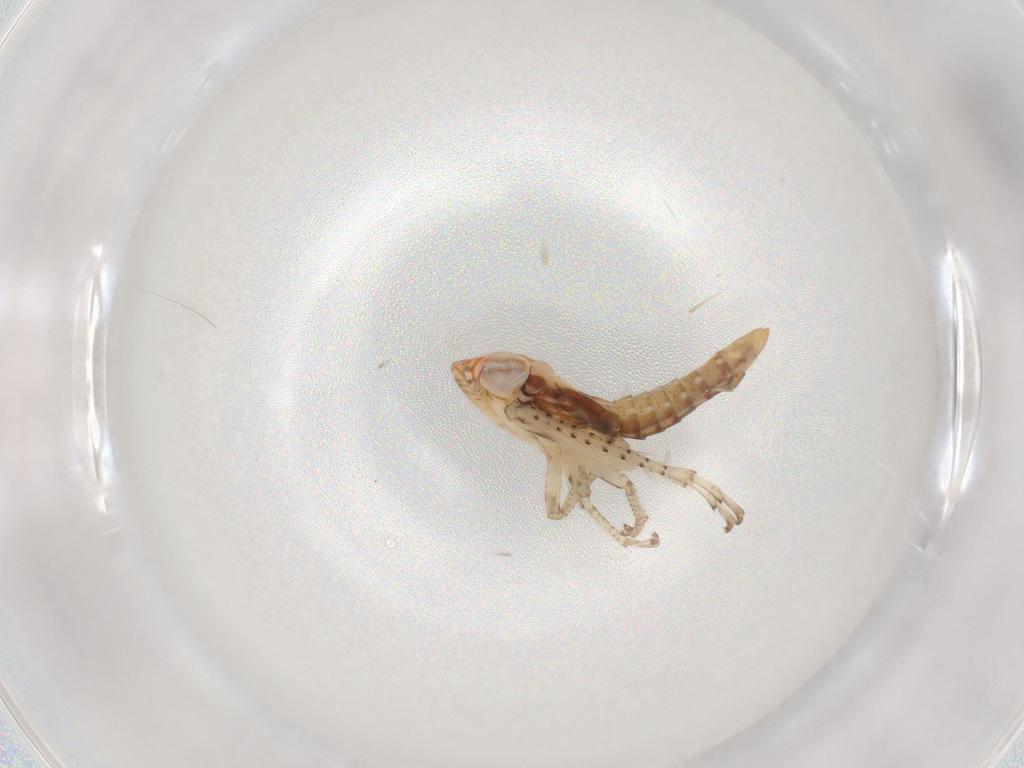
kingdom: Animalia
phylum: Arthropoda
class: Insecta
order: Hemiptera
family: Cicadellidae
